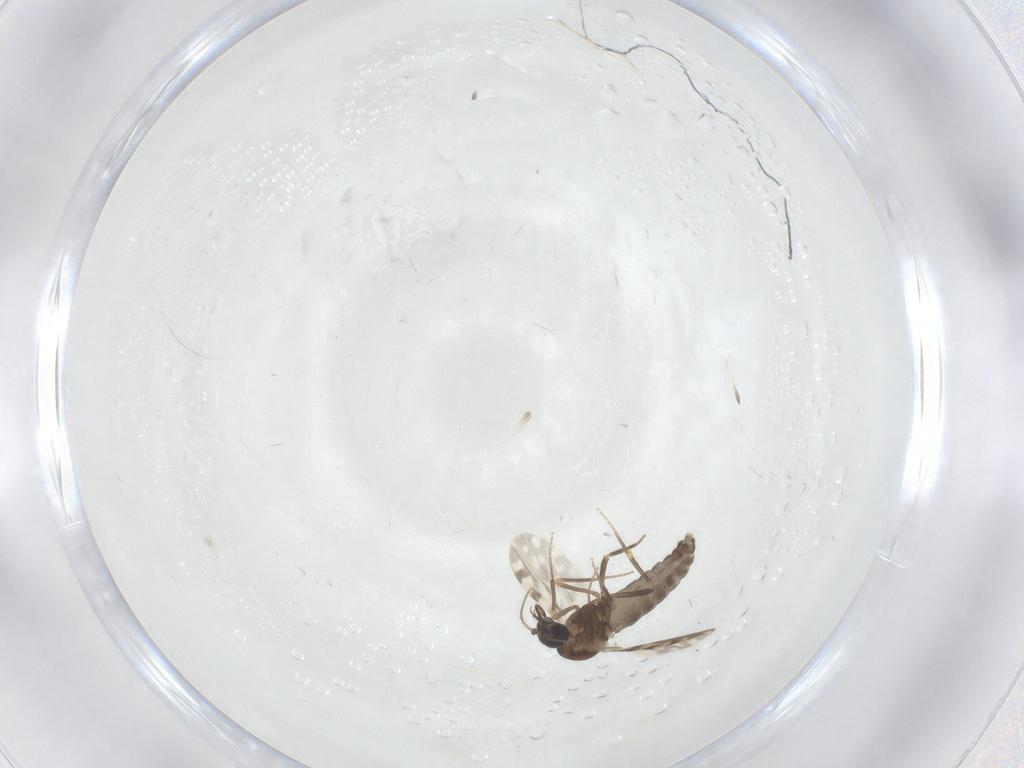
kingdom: Animalia
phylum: Arthropoda
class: Insecta
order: Diptera
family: Ceratopogonidae
